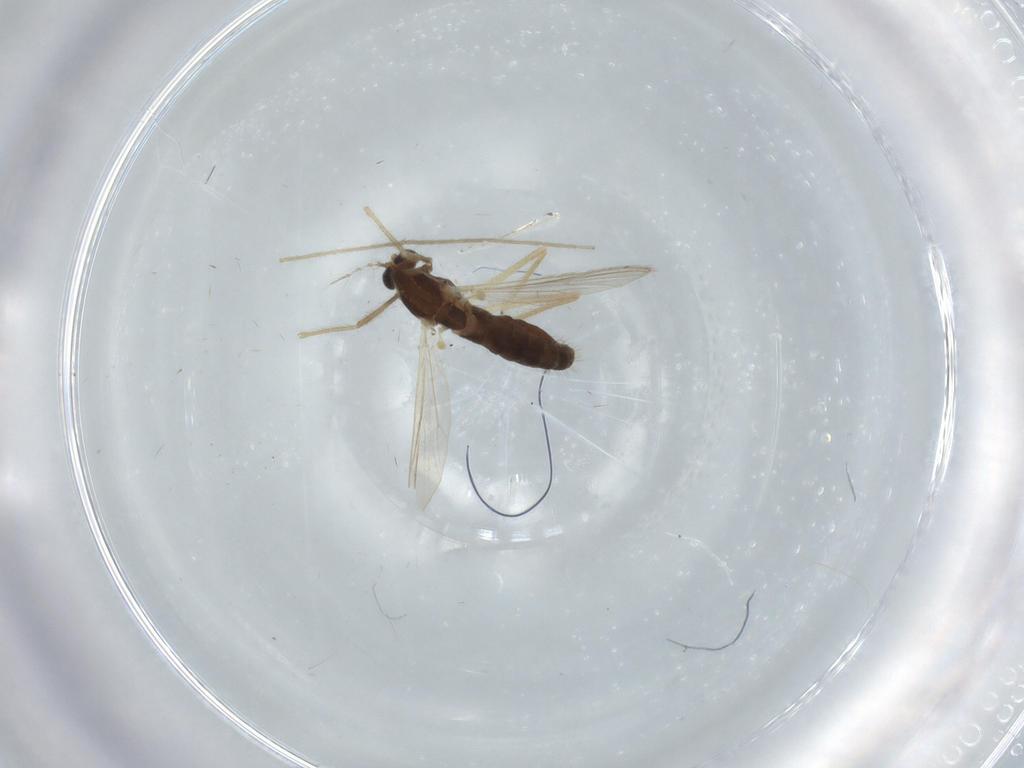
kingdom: Animalia
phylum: Arthropoda
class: Insecta
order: Diptera
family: Chironomidae
